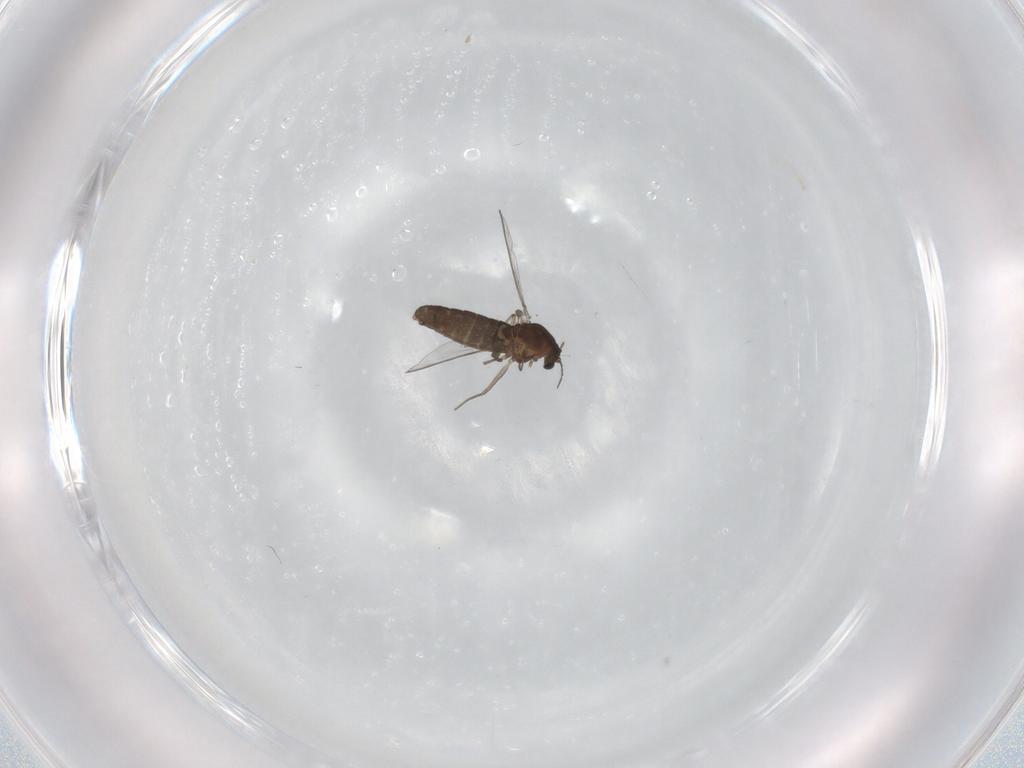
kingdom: Animalia
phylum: Arthropoda
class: Insecta
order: Diptera
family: Chironomidae
